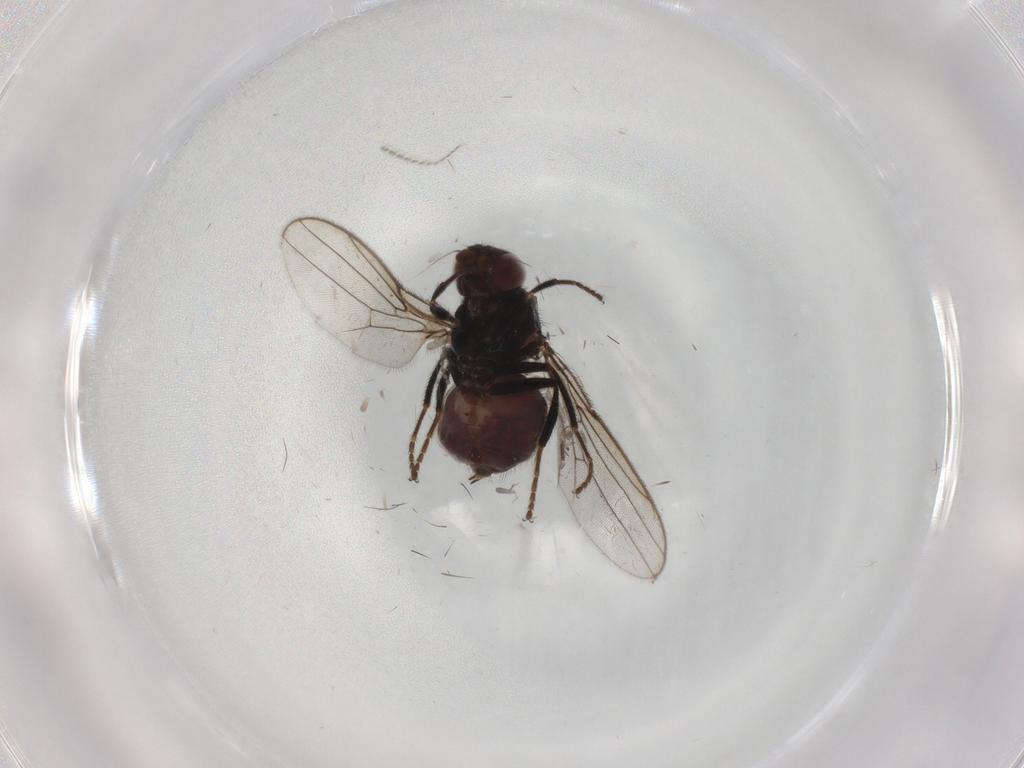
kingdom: Animalia
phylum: Arthropoda
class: Insecta
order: Diptera
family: Chloropidae
